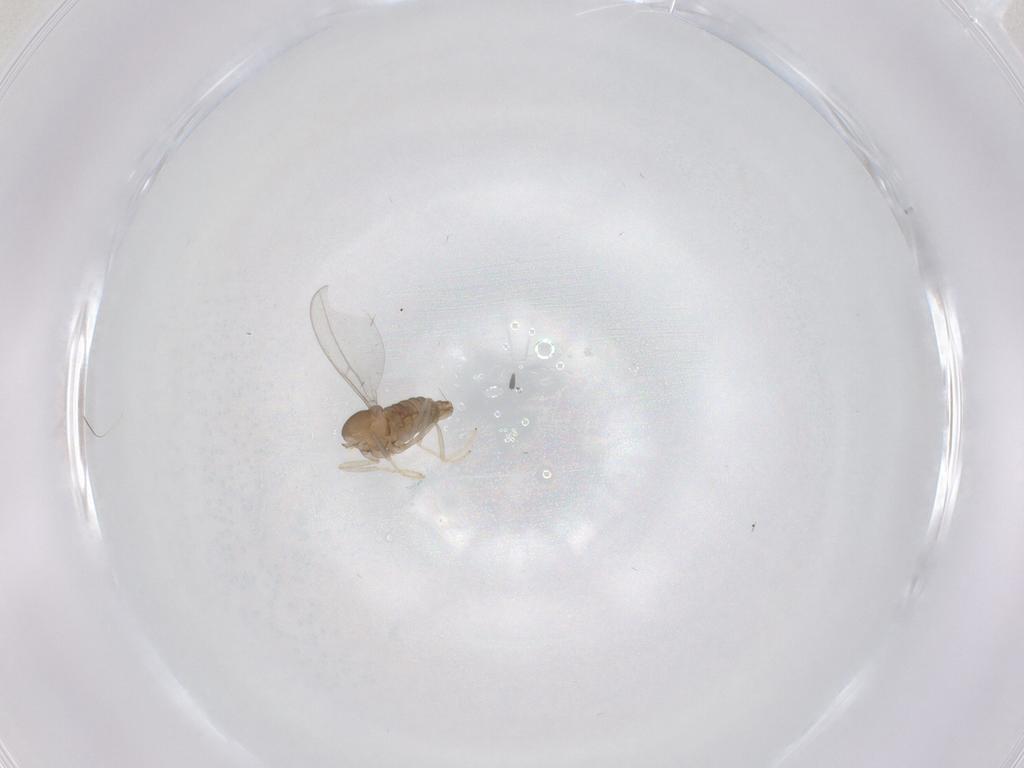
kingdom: Animalia
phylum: Arthropoda
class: Insecta
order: Diptera
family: Cecidomyiidae
